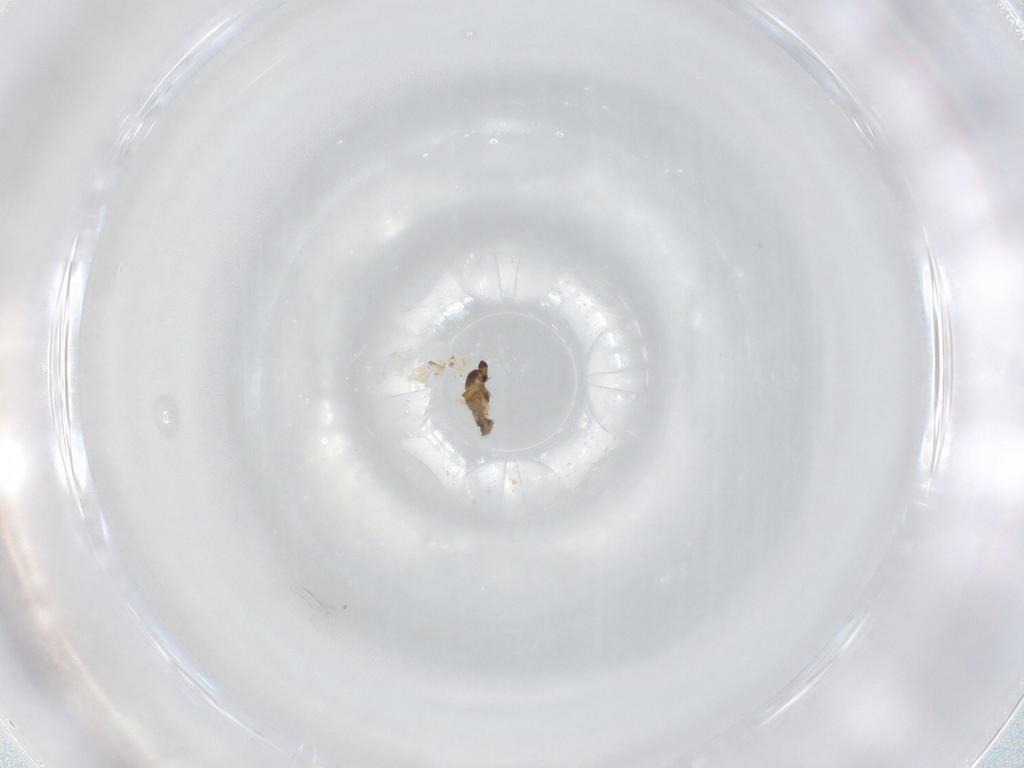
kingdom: Animalia
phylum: Arthropoda
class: Insecta
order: Diptera
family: Cecidomyiidae
